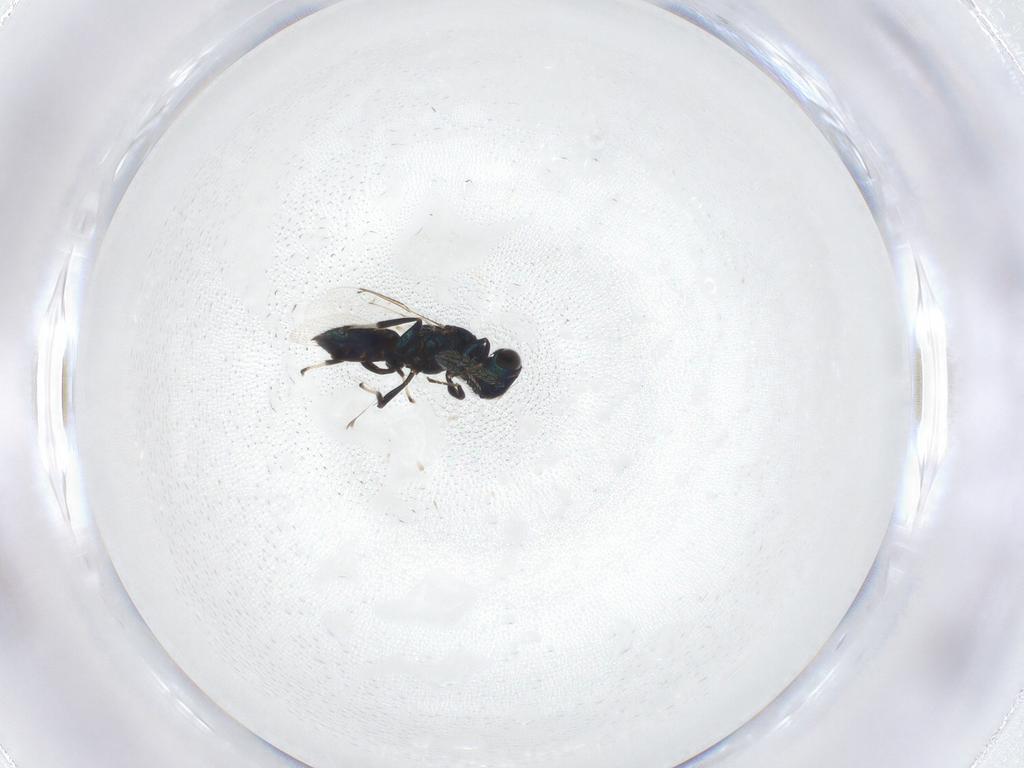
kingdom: Animalia
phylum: Arthropoda
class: Insecta
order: Hymenoptera
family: Eulophidae
